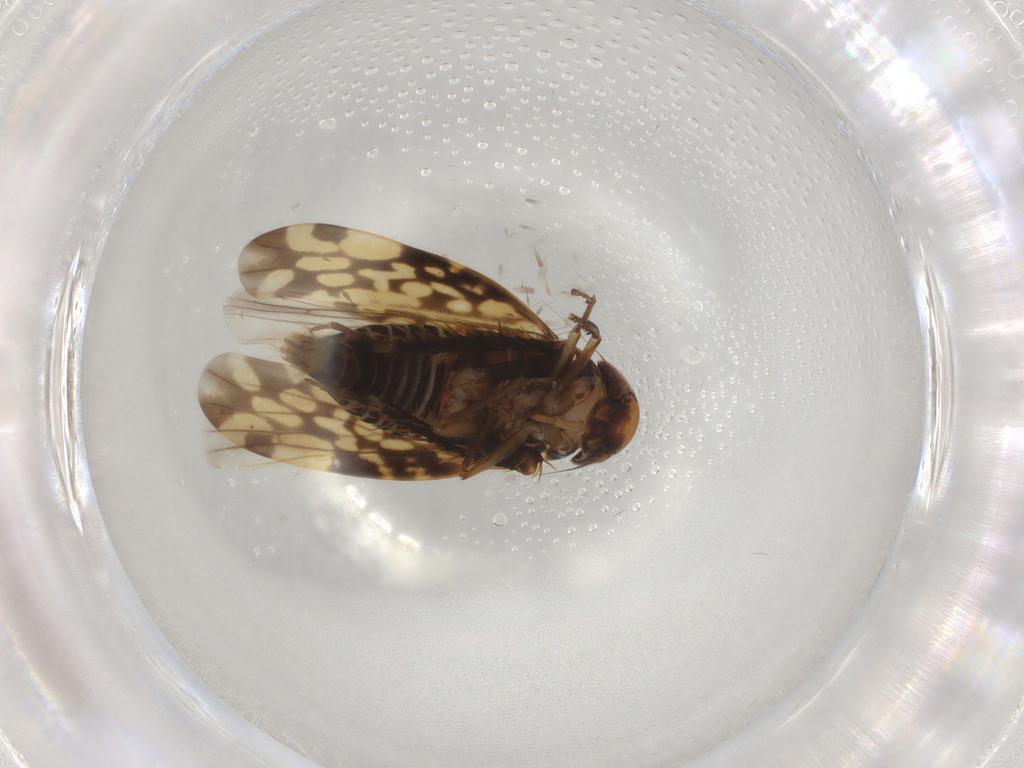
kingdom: Animalia
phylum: Arthropoda
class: Insecta
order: Hemiptera
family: Cicadellidae
